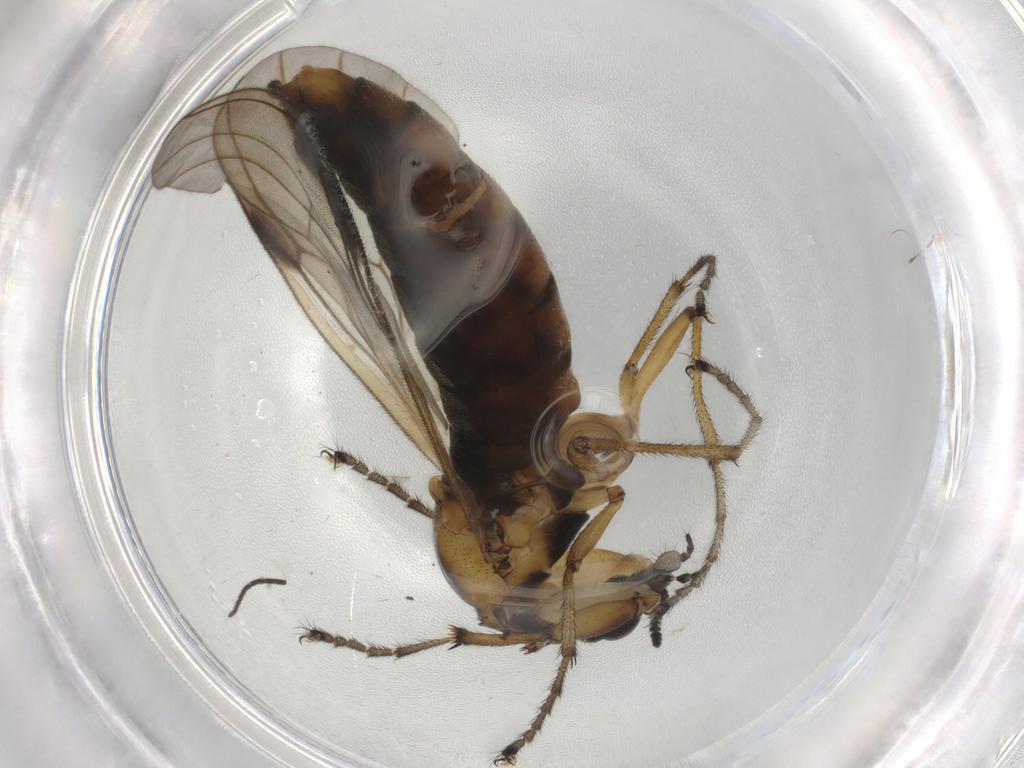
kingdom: Animalia
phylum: Arthropoda
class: Insecta
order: Diptera
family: Sciaridae
